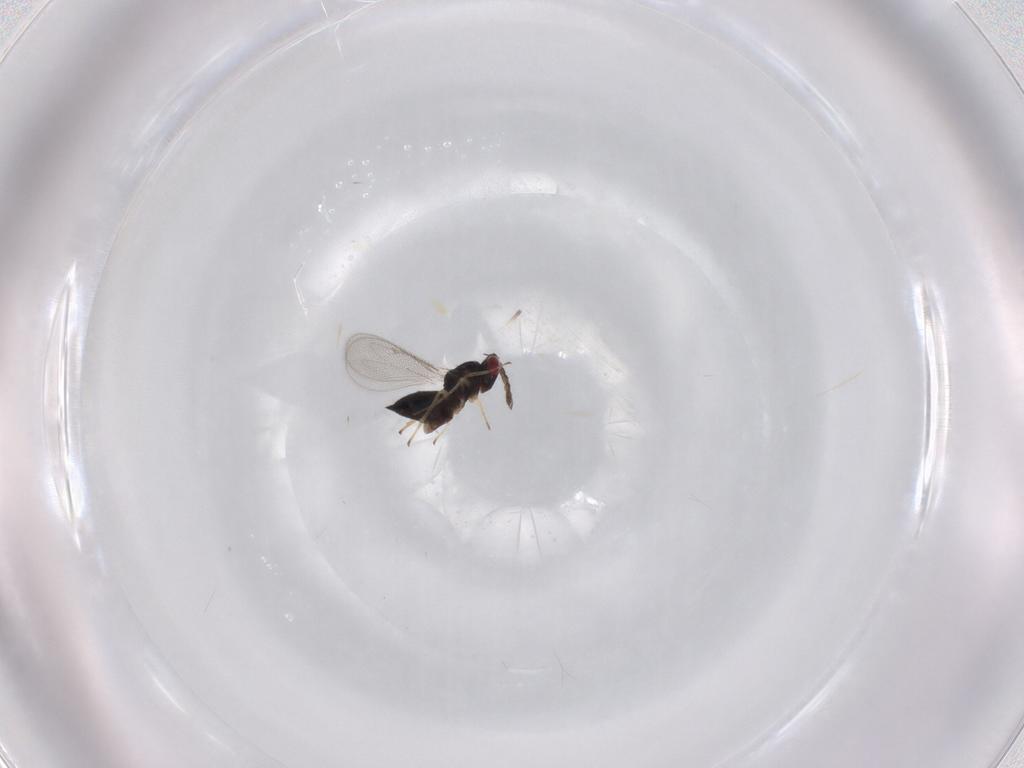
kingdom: Animalia
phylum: Arthropoda
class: Insecta
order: Hymenoptera
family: Eulophidae
